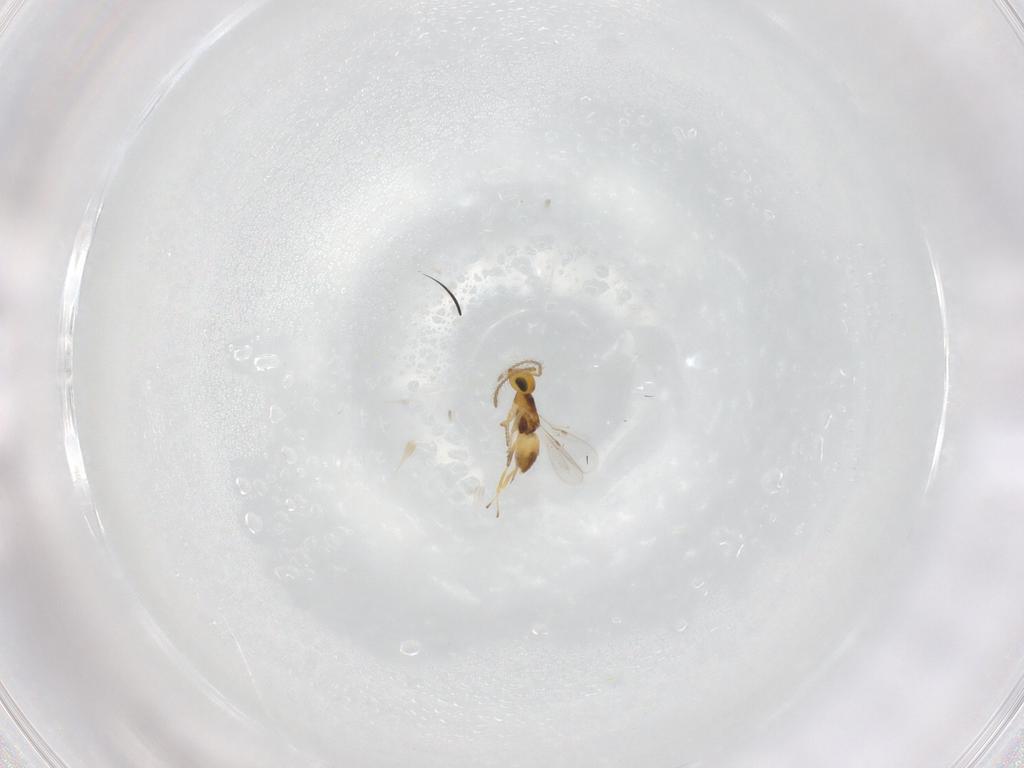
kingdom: Animalia
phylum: Arthropoda
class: Insecta
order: Hymenoptera
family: Encyrtidae
